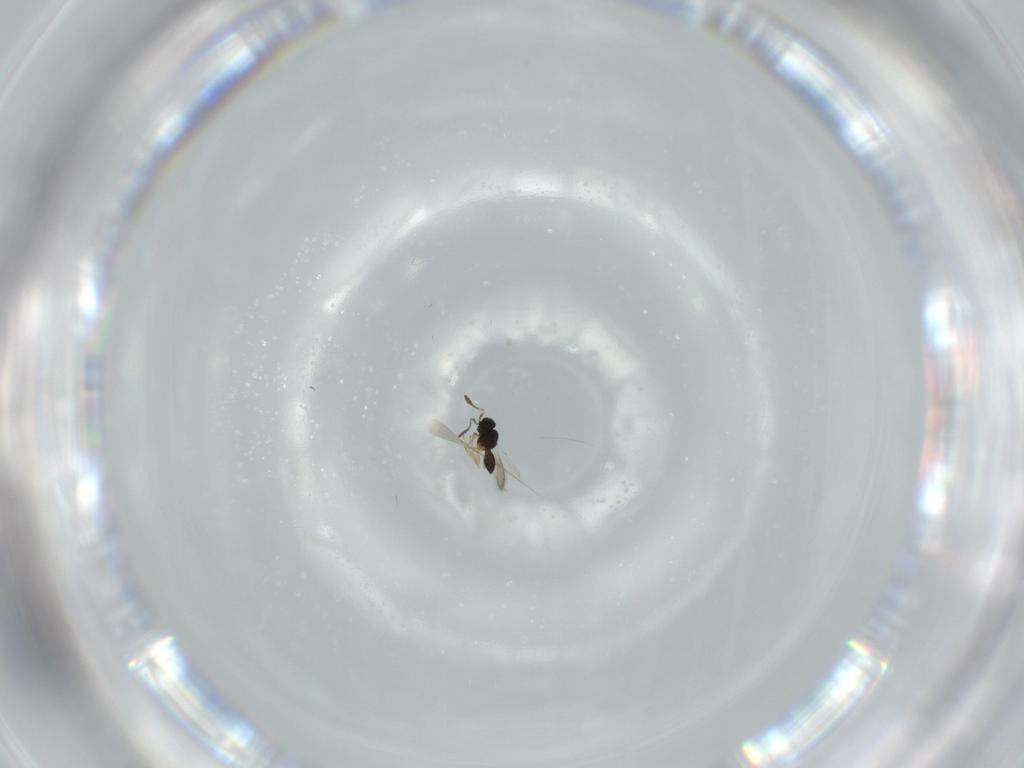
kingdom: Animalia
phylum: Arthropoda
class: Insecta
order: Hymenoptera
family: Scelionidae
